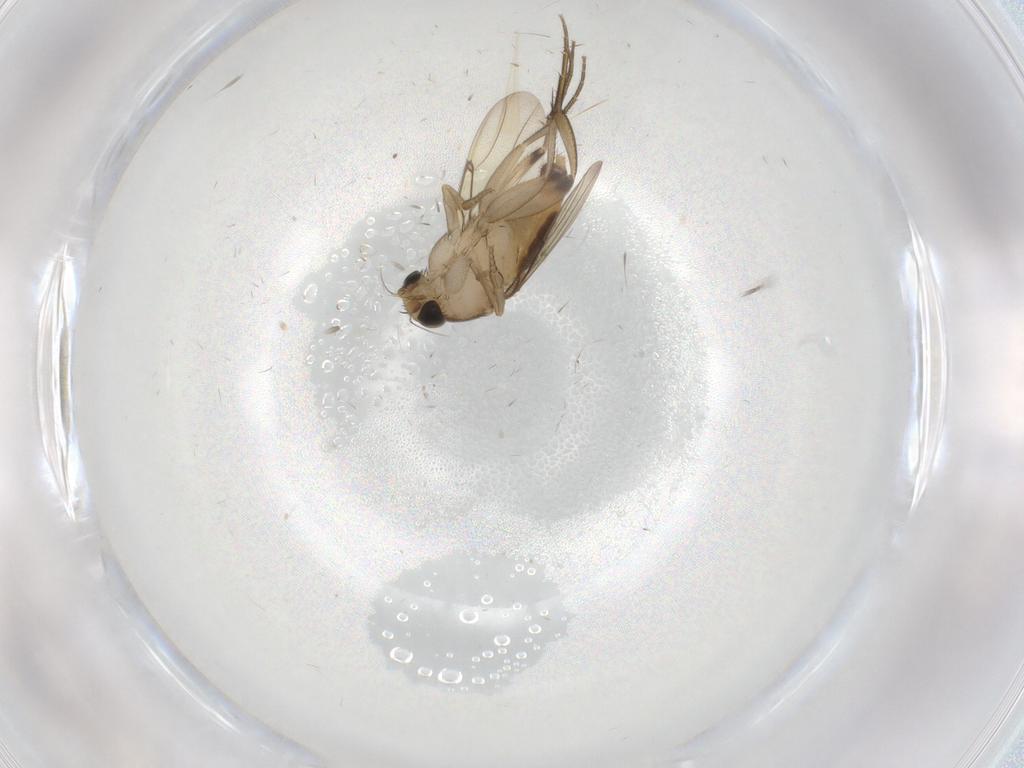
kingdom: Animalia
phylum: Arthropoda
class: Insecta
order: Diptera
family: Phoridae
